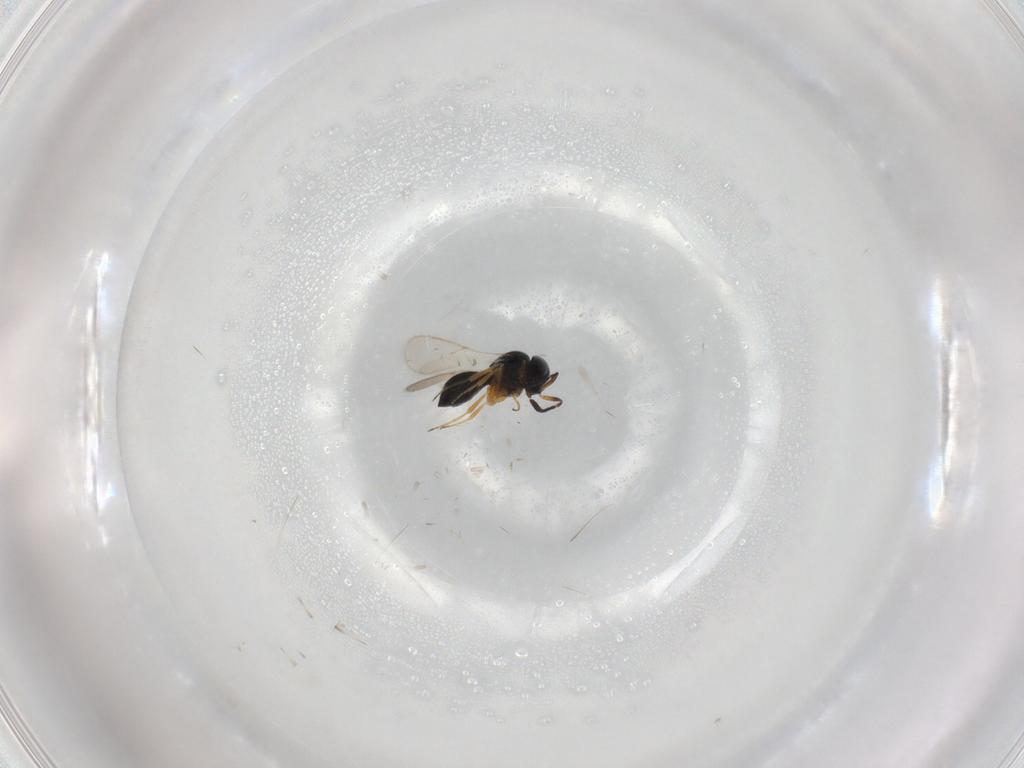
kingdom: Animalia
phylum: Arthropoda
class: Insecta
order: Hymenoptera
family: Scelionidae
